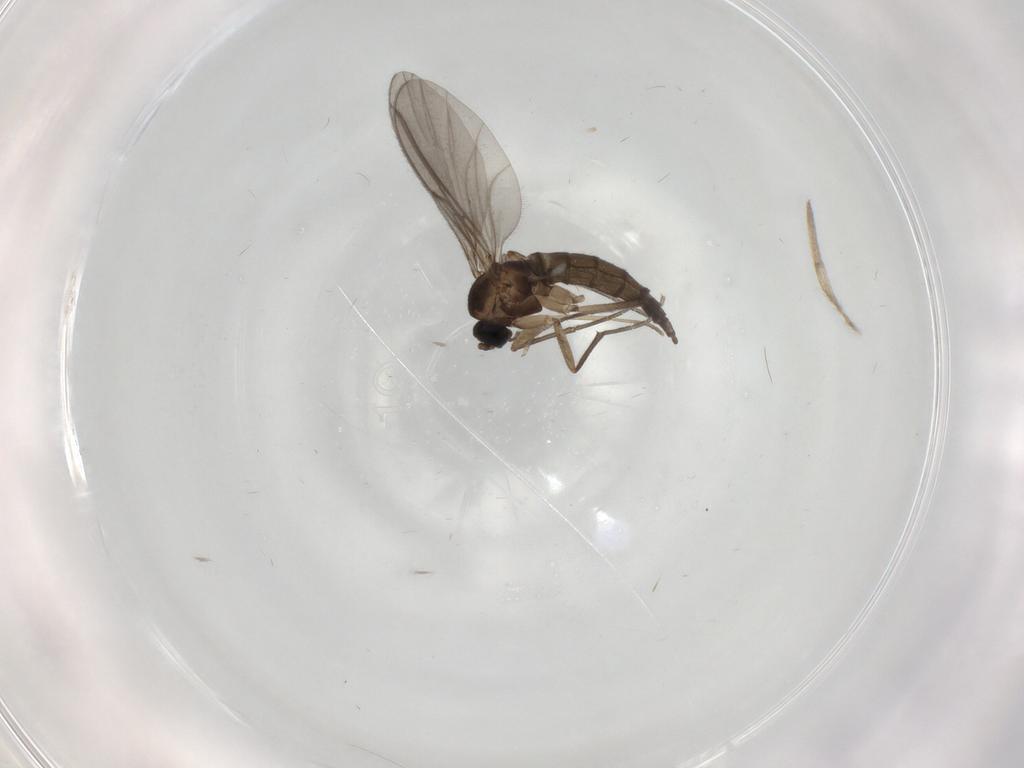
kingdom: Animalia
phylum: Arthropoda
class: Insecta
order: Diptera
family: Sciaridae
